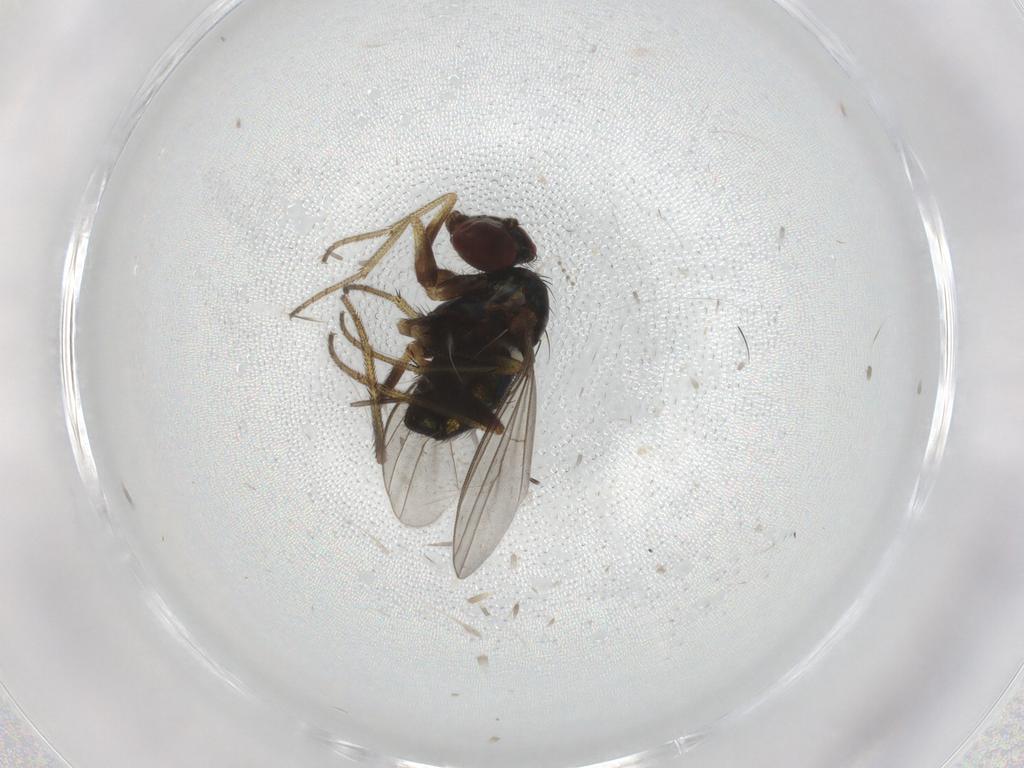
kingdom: Animalia
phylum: Arthropoda
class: Insecta
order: Diptera
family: Chironomidae
